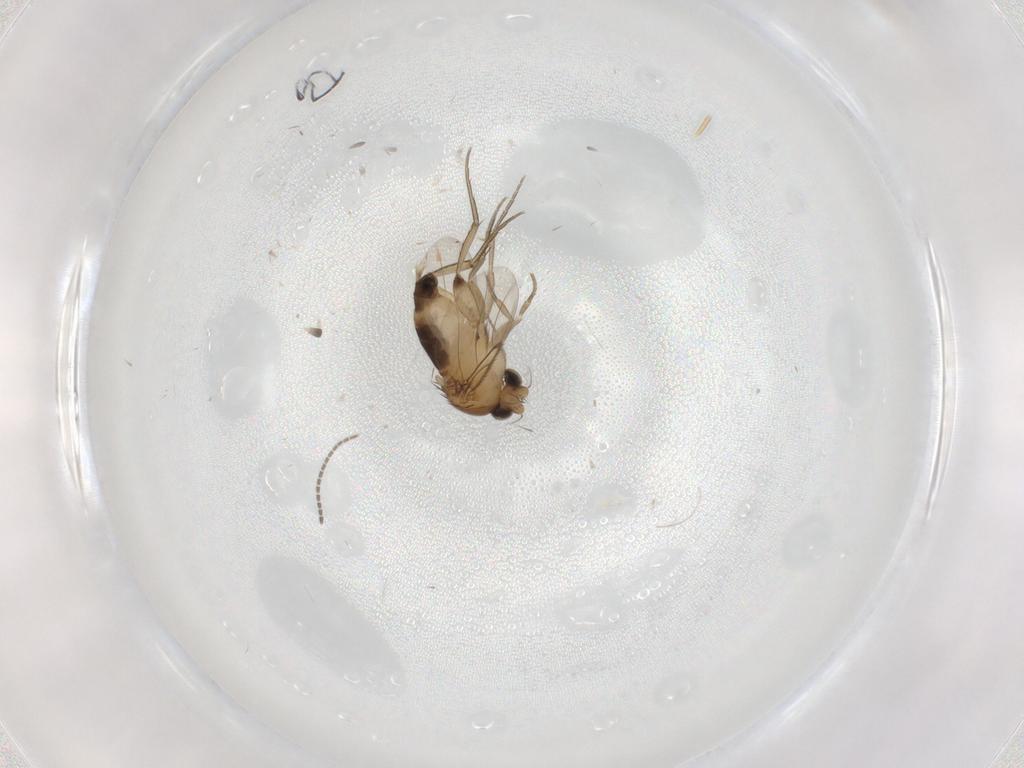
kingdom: Animalia
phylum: Arthropoda
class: Insecta
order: Diptera
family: Phoridae
